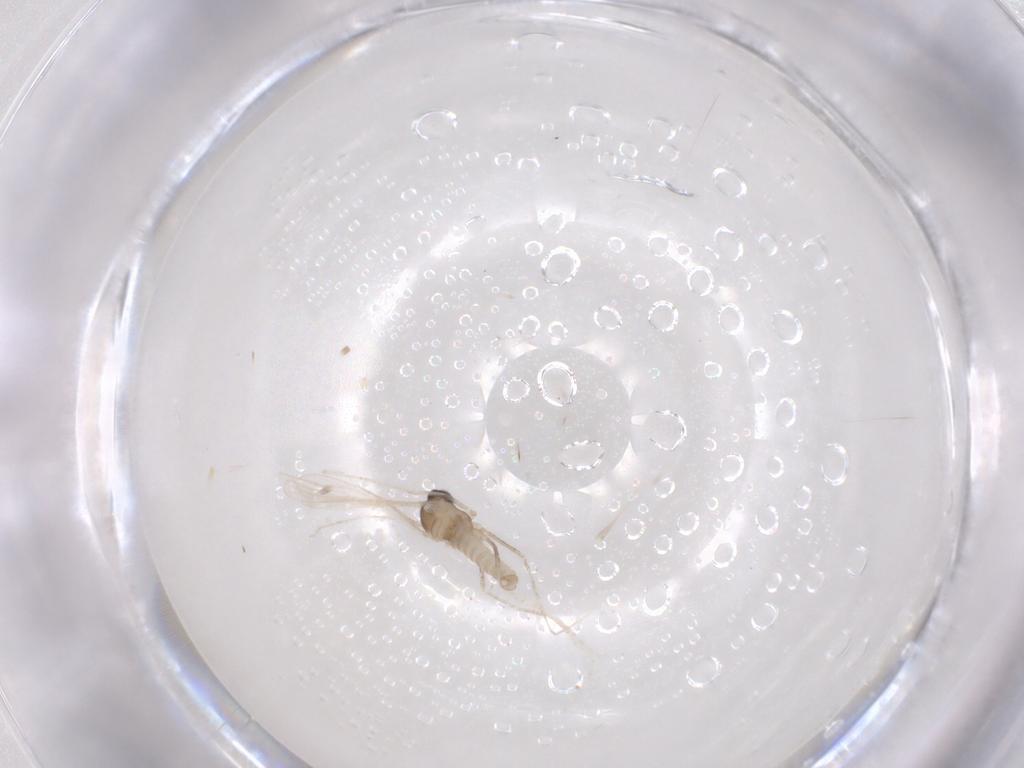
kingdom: Animalia
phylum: Arthropoda
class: Insecta
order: Diptera
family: Cecidomyiidae
